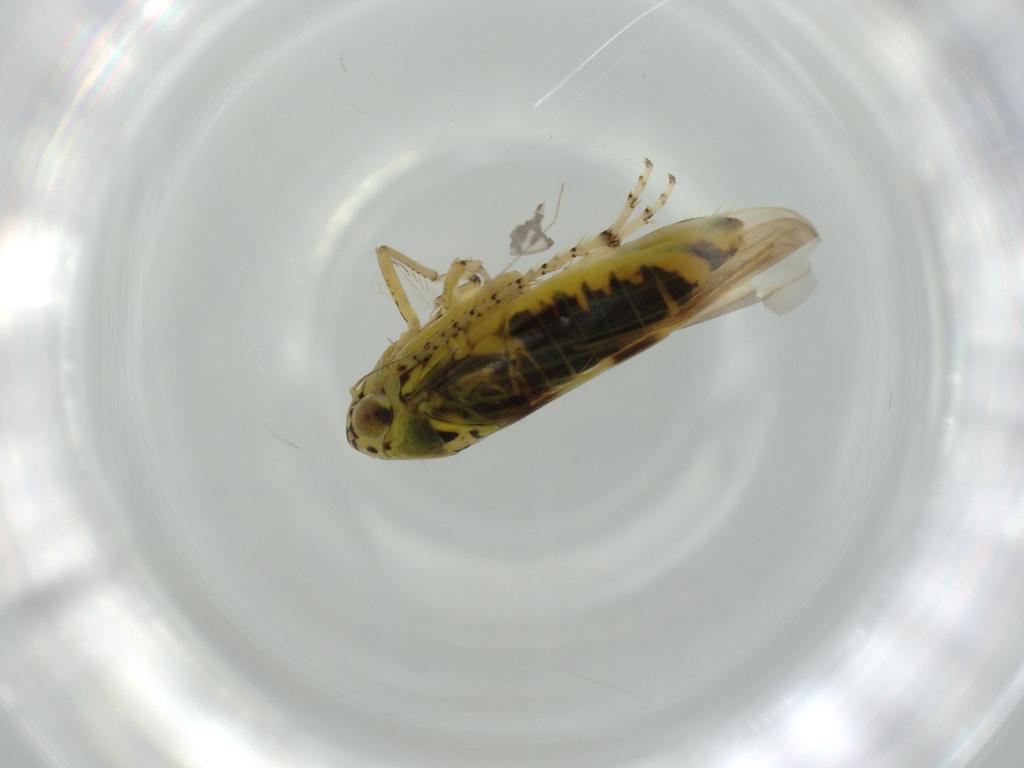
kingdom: Animalia
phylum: Arthropoda
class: Insecta
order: Hemiptera
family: Cicadellidae
